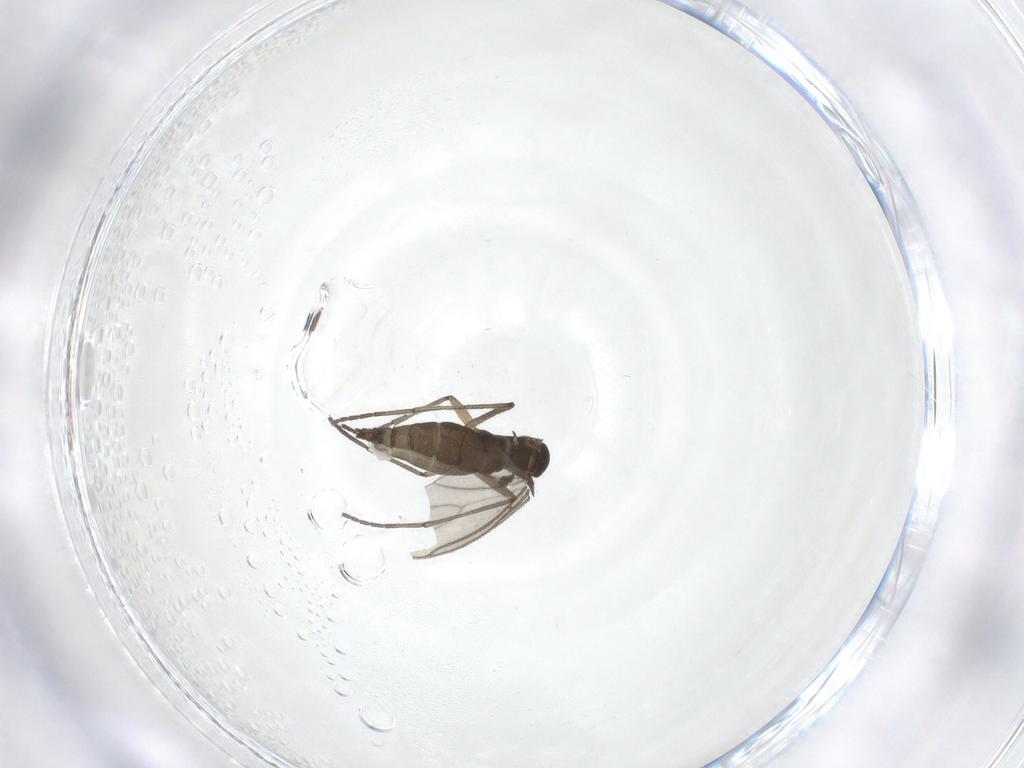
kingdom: Animalia
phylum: Arthropoda
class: Insecta
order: Diptera
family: Sciaridae
